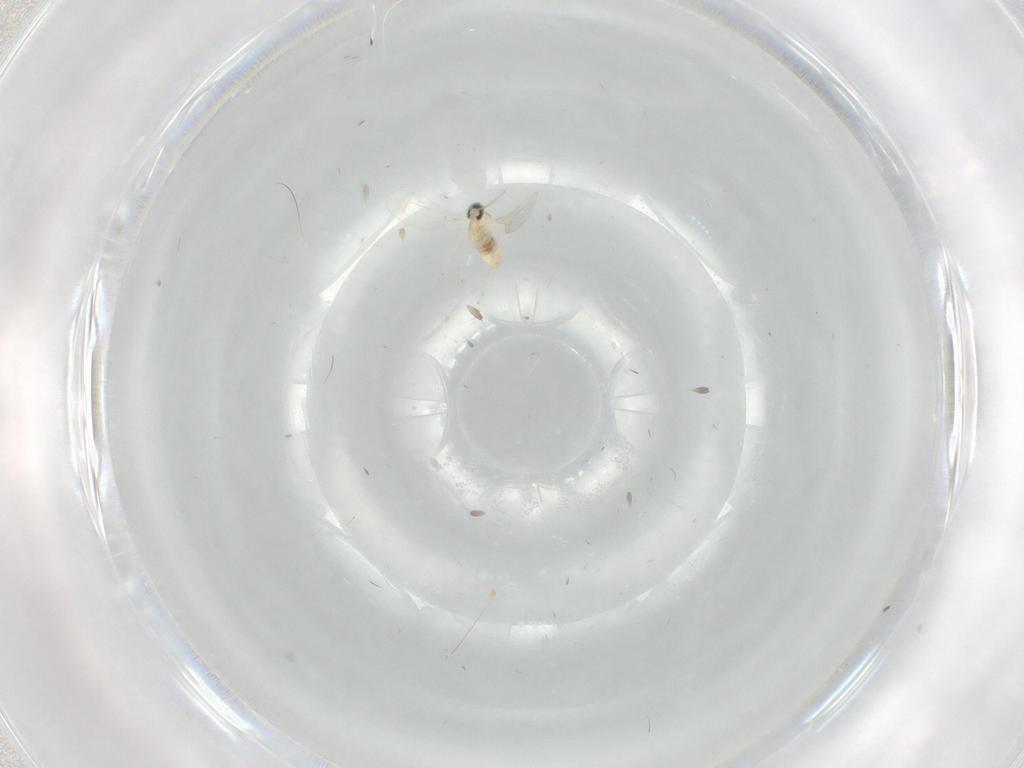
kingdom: Animalia
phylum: Arthropoda
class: Insecta
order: Diptera
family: Cecidomyiidae
